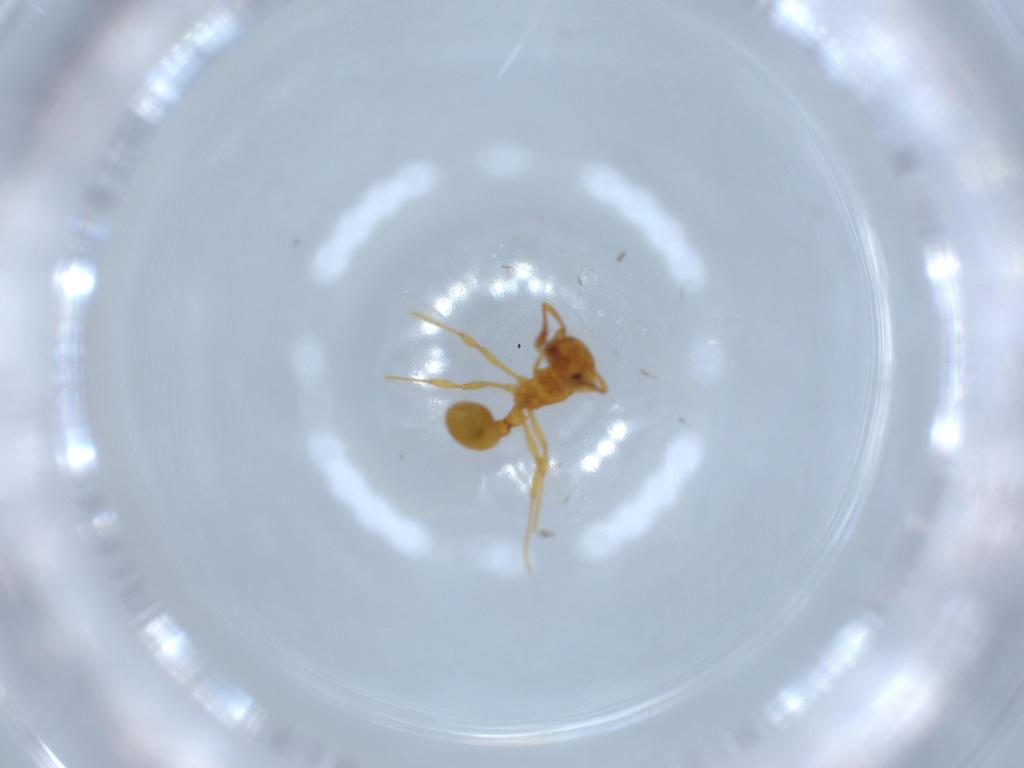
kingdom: Animalia
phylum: Arthropoda
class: Insecta
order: Hymenoptera
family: Formicidae
